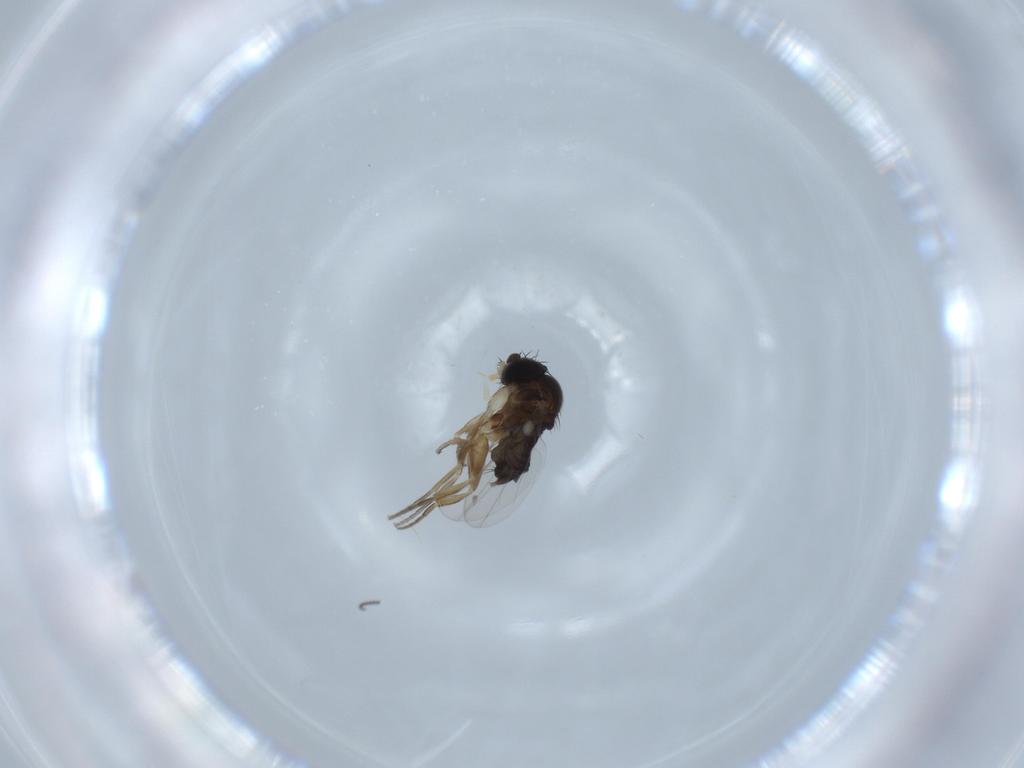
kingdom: Animalia
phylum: Arthropoda
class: Insecta
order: Diptera
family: Phoridae
